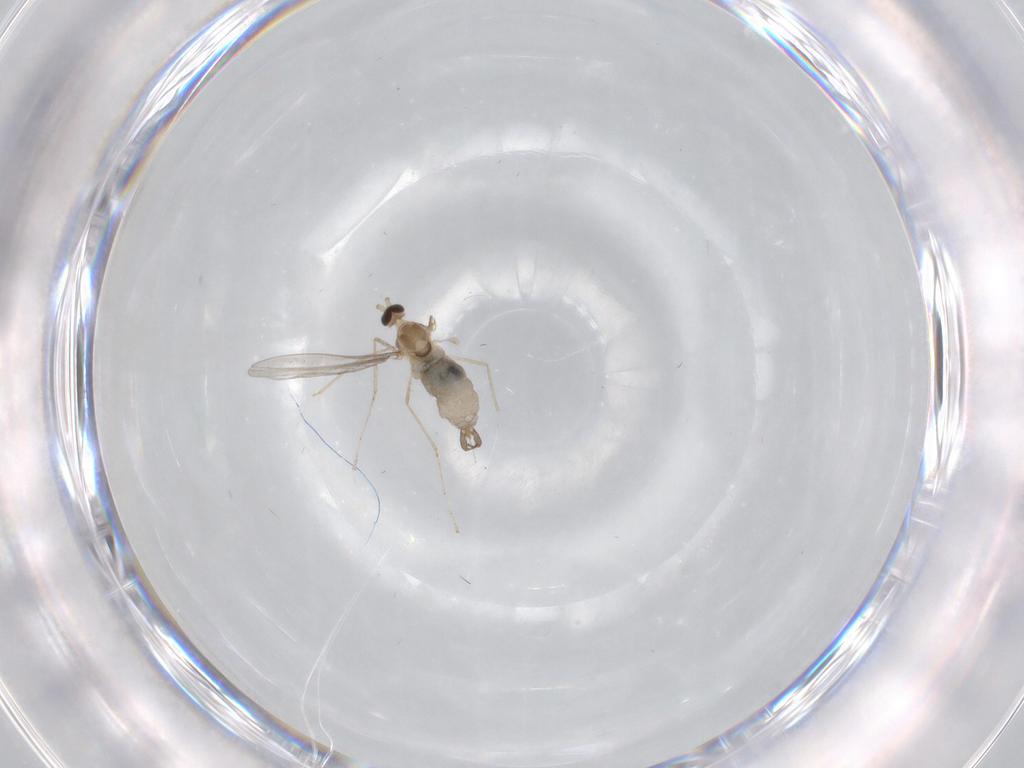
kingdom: Animalia
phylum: Arthropoda
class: Insecta
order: Diptera
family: Cecidomyiidae
